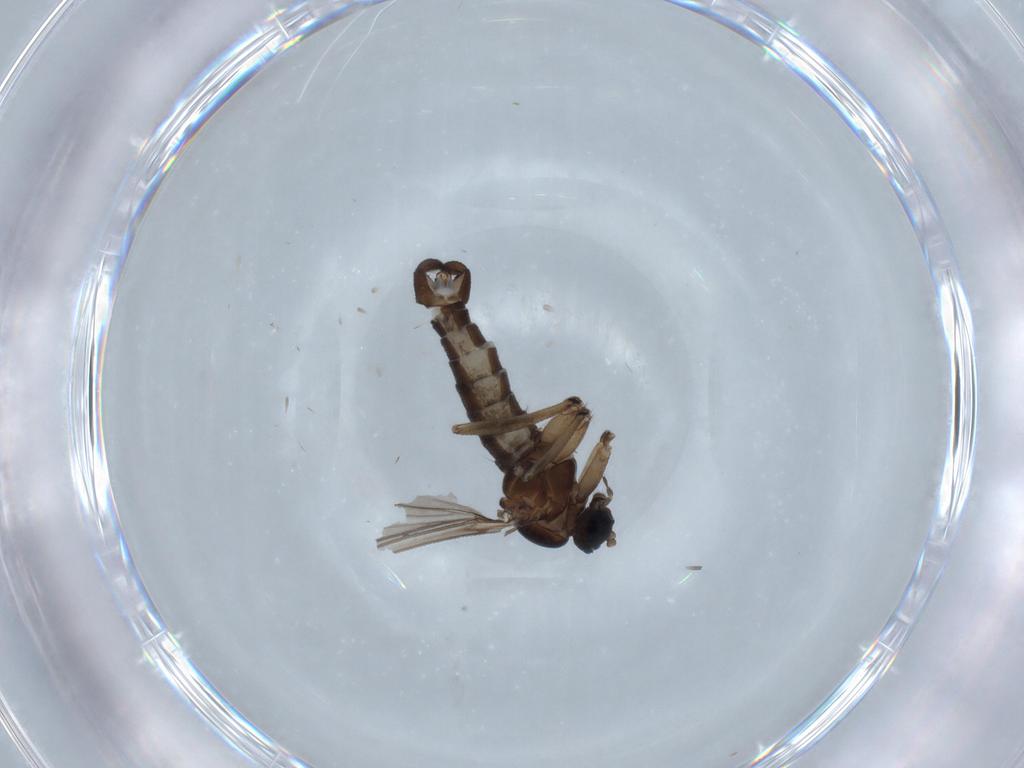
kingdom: Animalia
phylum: Arthropoda
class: Insecta
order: Diptera
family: Sciaridae
